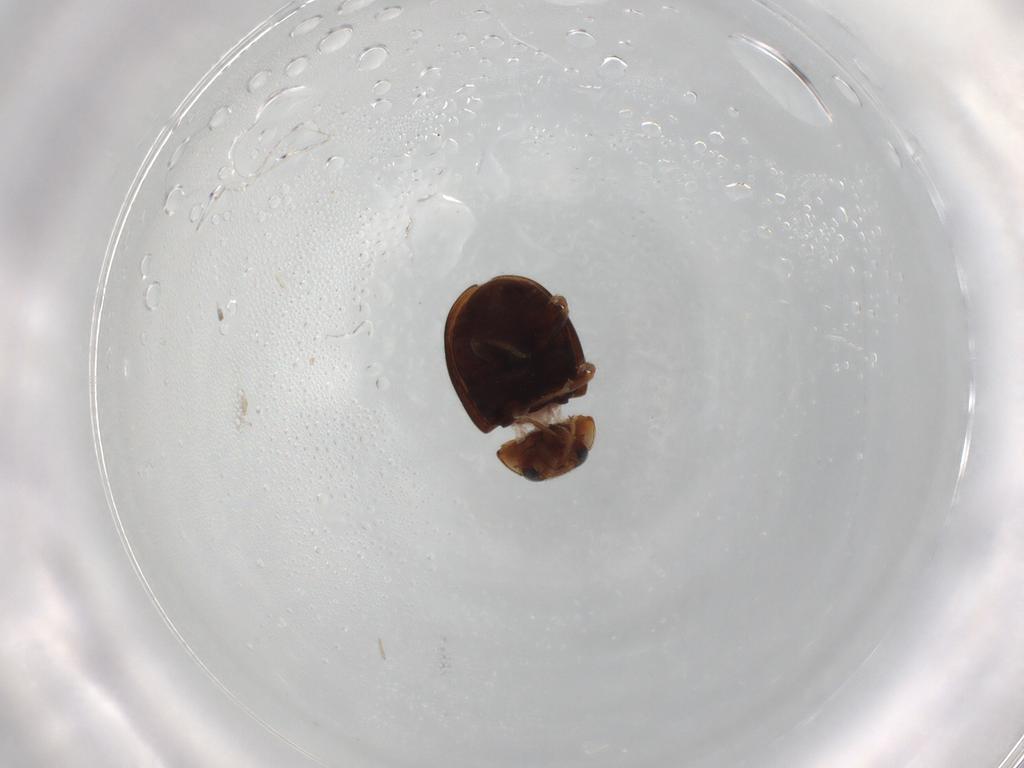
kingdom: Animalia
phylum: Arthropoda
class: Insecta
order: Coleoptera
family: Coccinellidae
